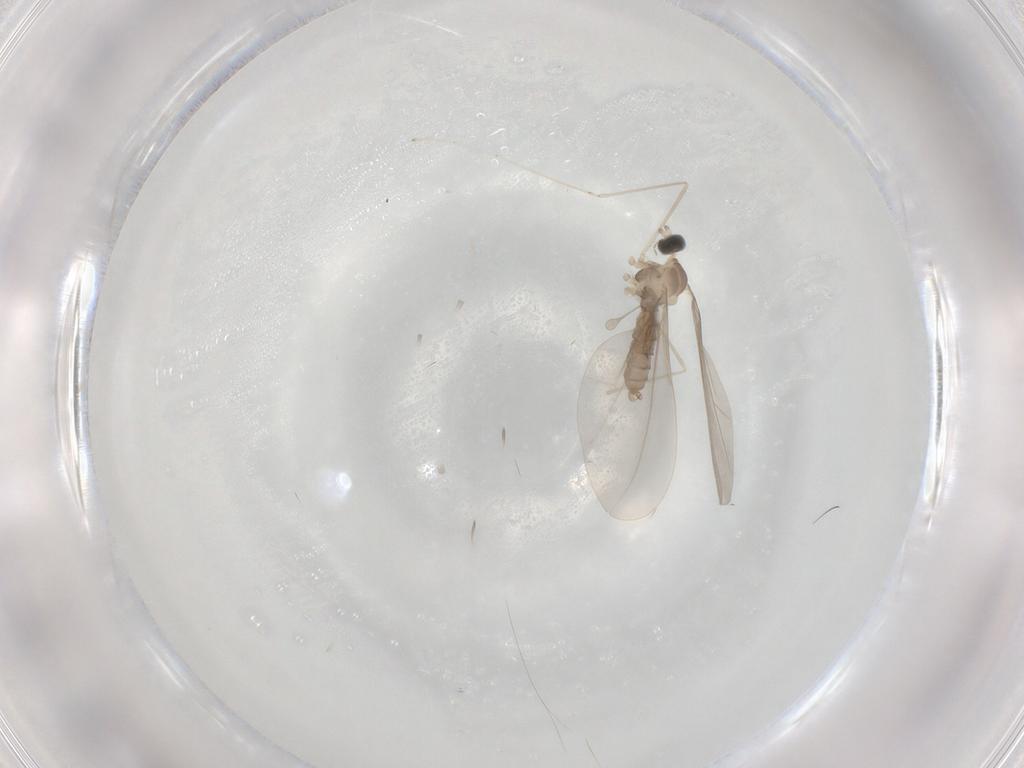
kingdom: Animalia
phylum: Arthropoda
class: Insecta
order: Diptera
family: Cecidomyiidae
